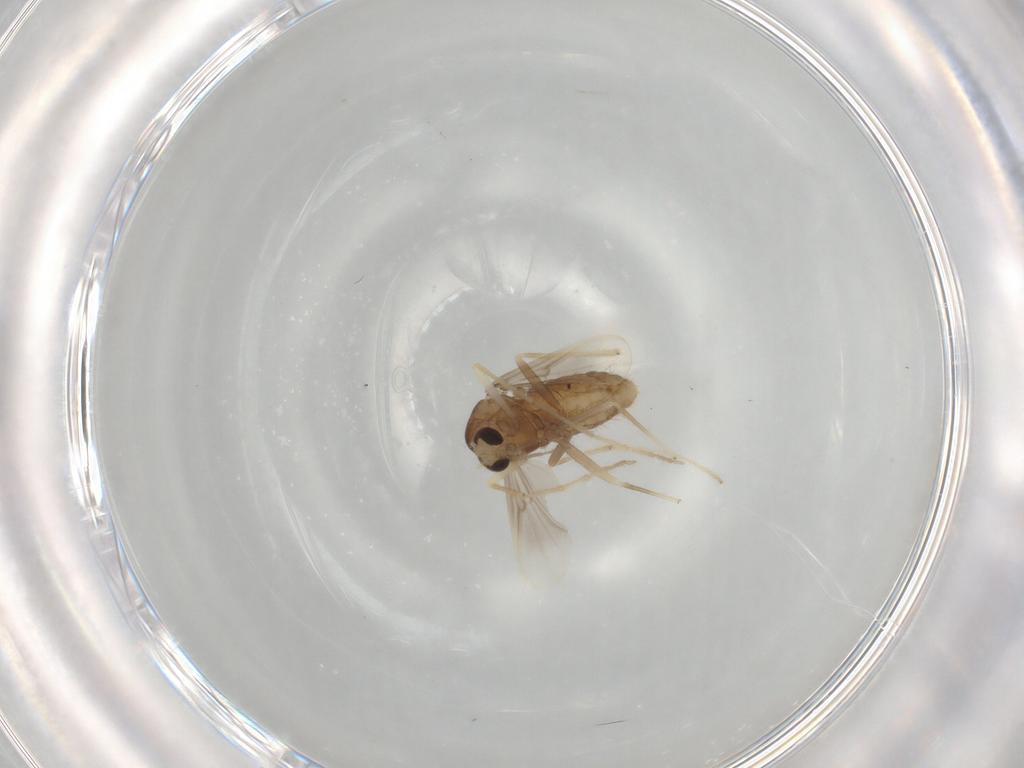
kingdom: Animalia
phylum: Arthropoda
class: Insecta
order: Diptera
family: Chironomidae
